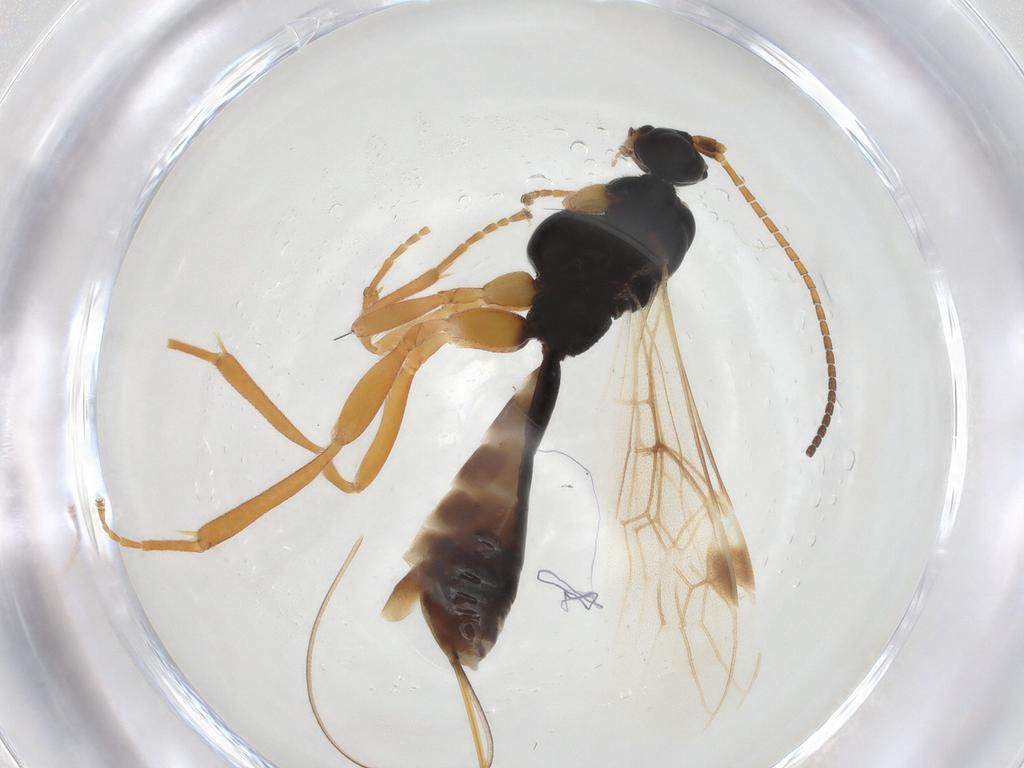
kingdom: Animalia
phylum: Arthropoda
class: Insecta
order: Hymenoptera
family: Braconidae
